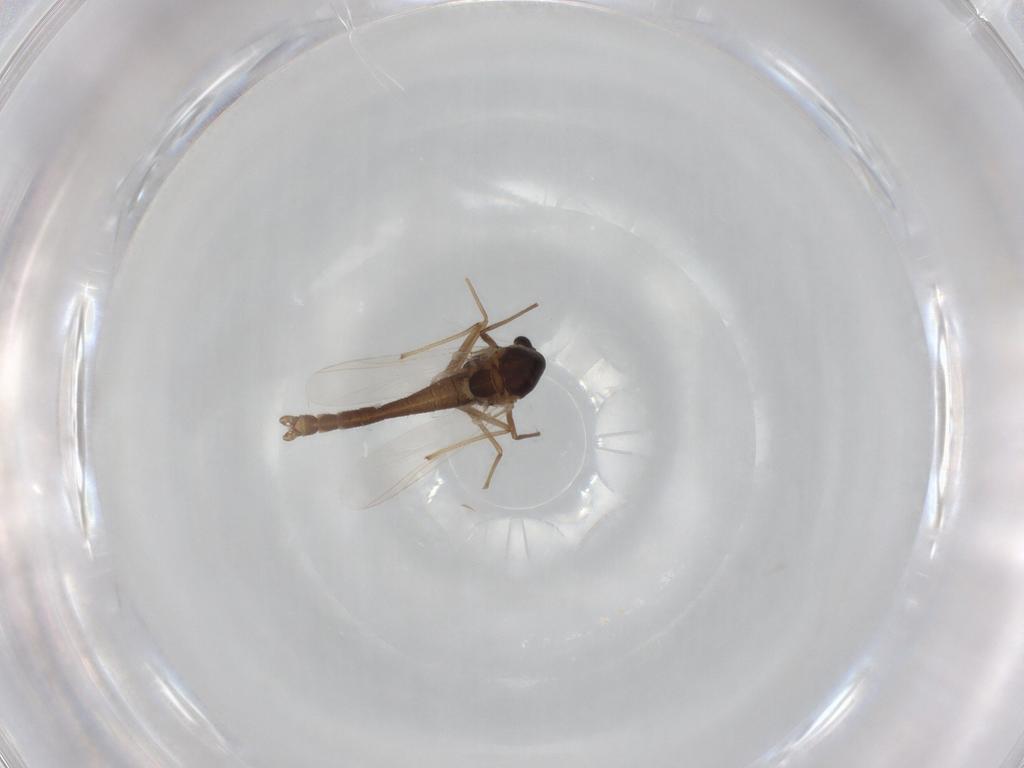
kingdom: Animalia
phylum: Arthropoda
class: Insecta
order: Diptera
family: Chironomidae
